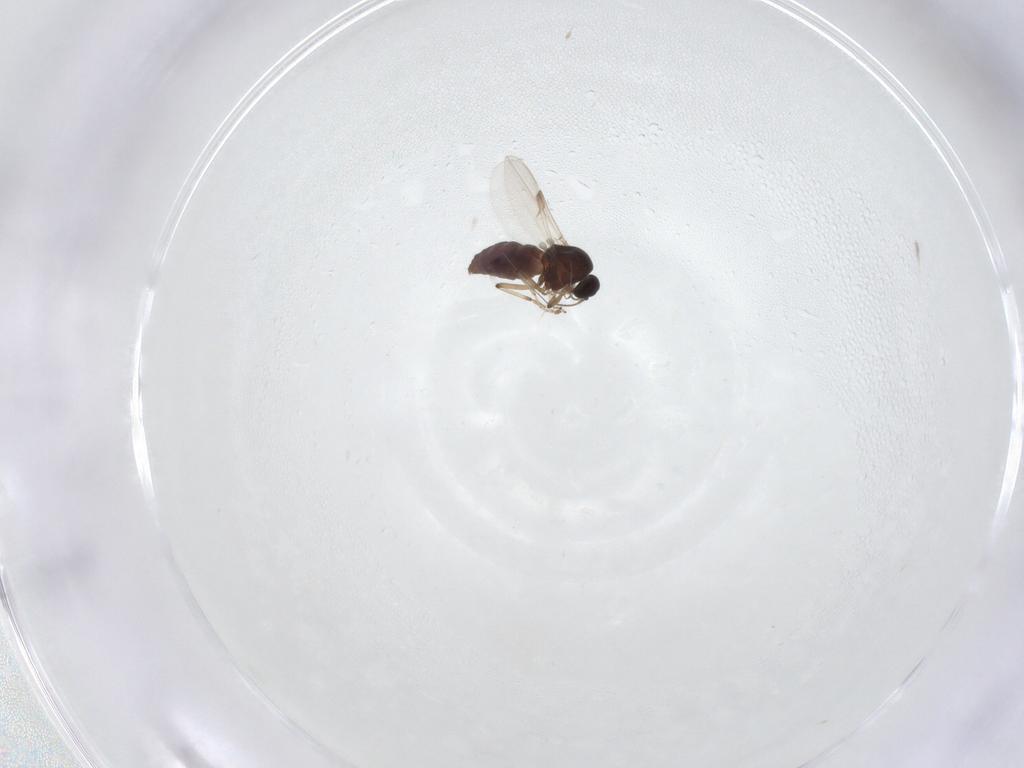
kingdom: Animalia
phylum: Arthropoda
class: Insecta
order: Diptera
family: Ceratopogonidae
